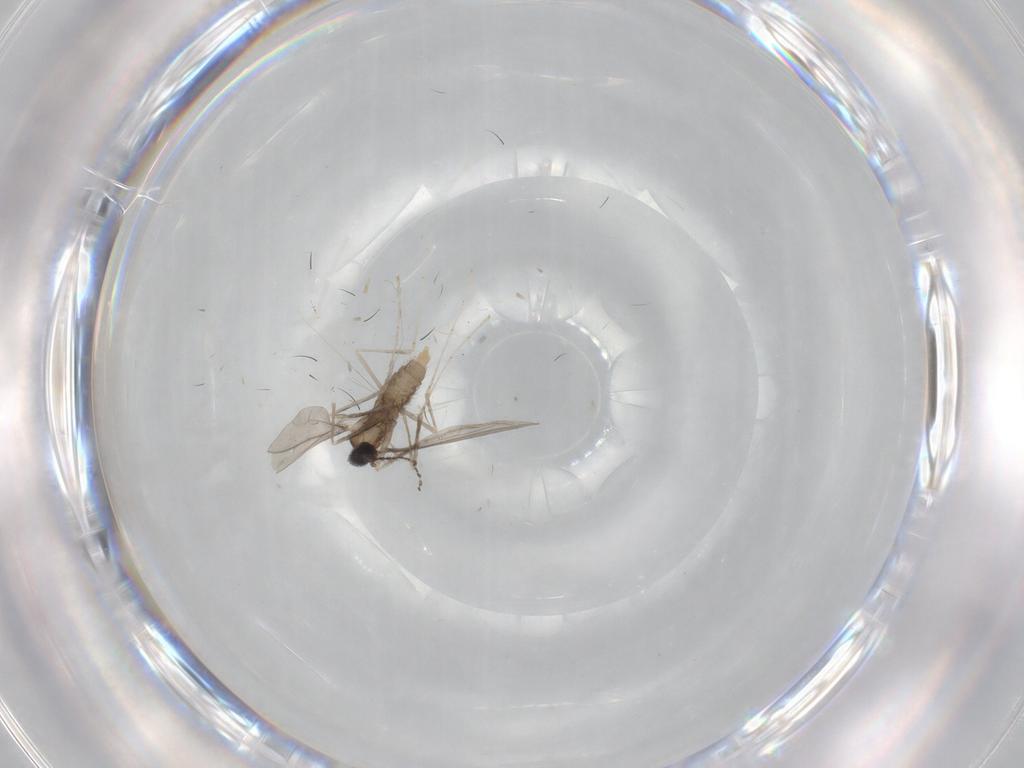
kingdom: Animalia
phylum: Arthropoda
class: Insecta
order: Diptera
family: Cecidomyiidae
